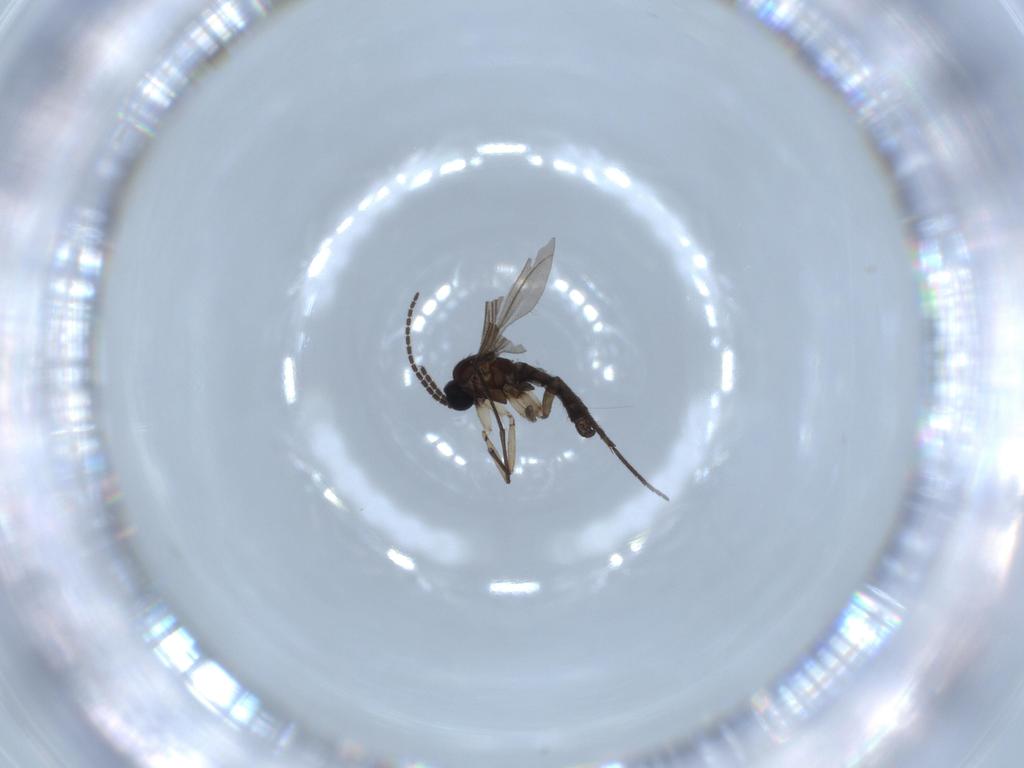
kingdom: Animalia
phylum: Arthropoda
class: Insecta
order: Diptera
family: Sciaridae
